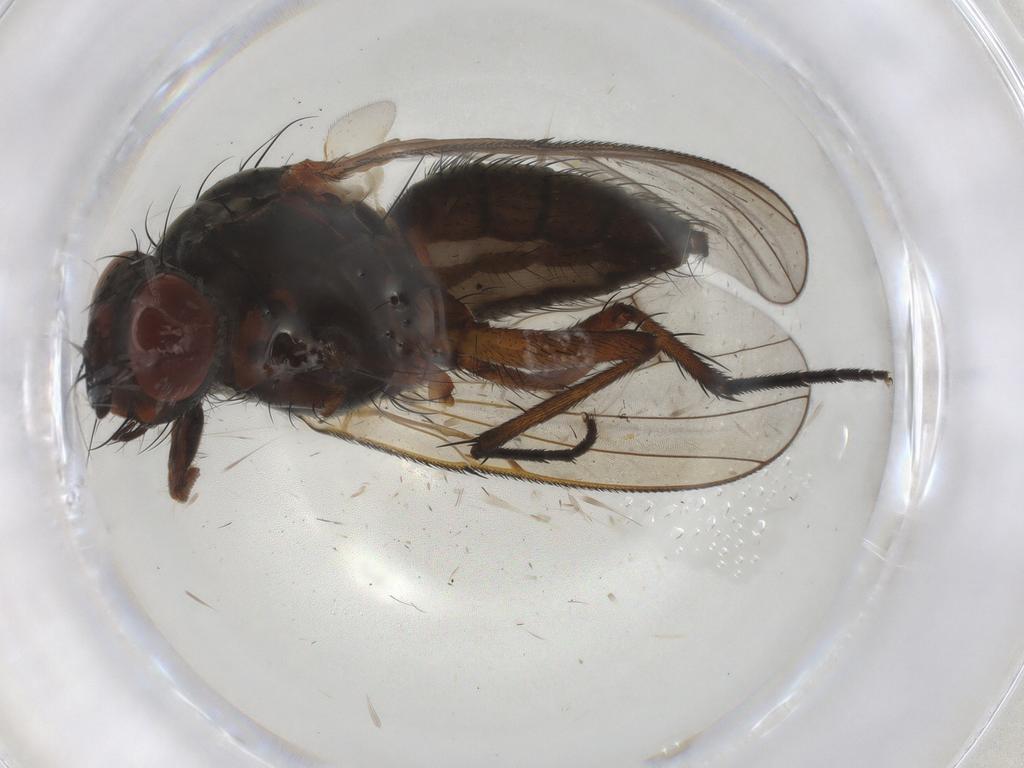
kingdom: Animalia
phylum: Arthropoda
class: Insecta
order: Diptera
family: Anthomyiidae
